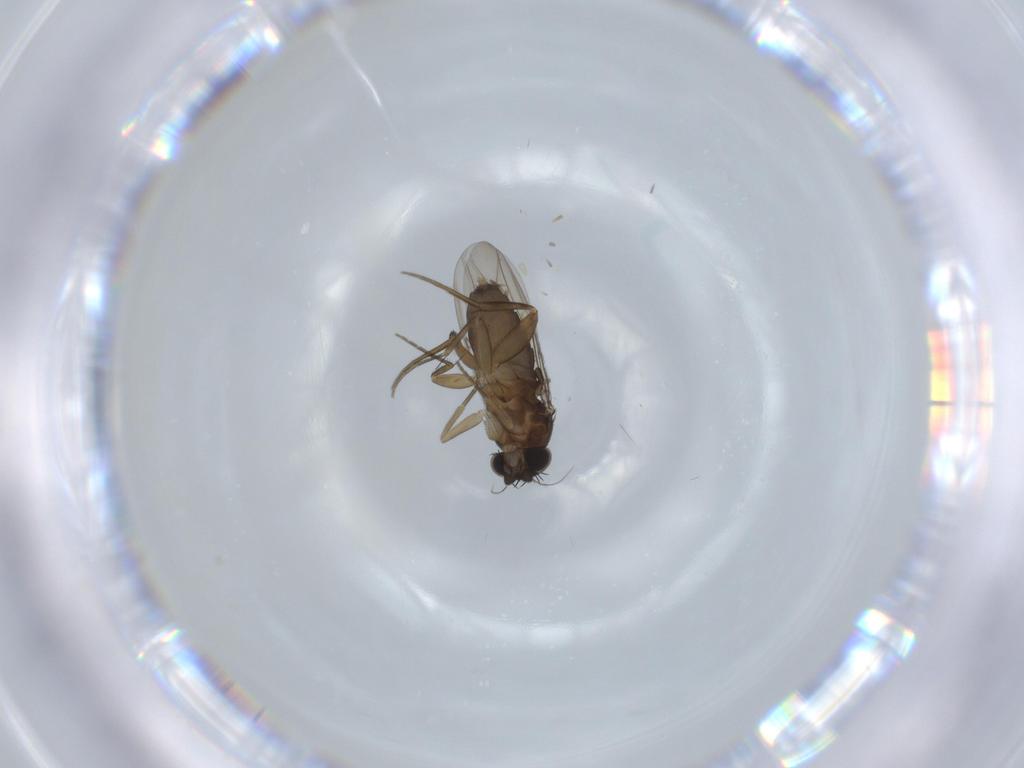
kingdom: Animalia
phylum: Arthropoda
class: Insecta
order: Diptera
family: Phoridae
